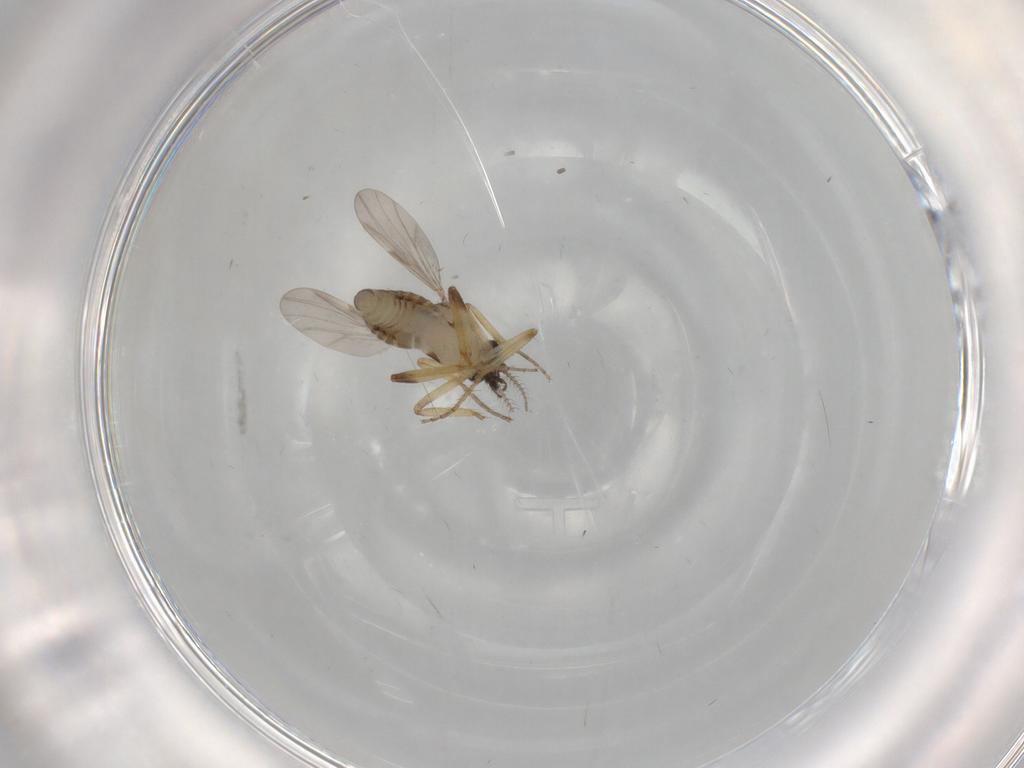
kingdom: Animalia
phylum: Arthropoda
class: Insecta
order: Diptera
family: Ceratopogonidae
